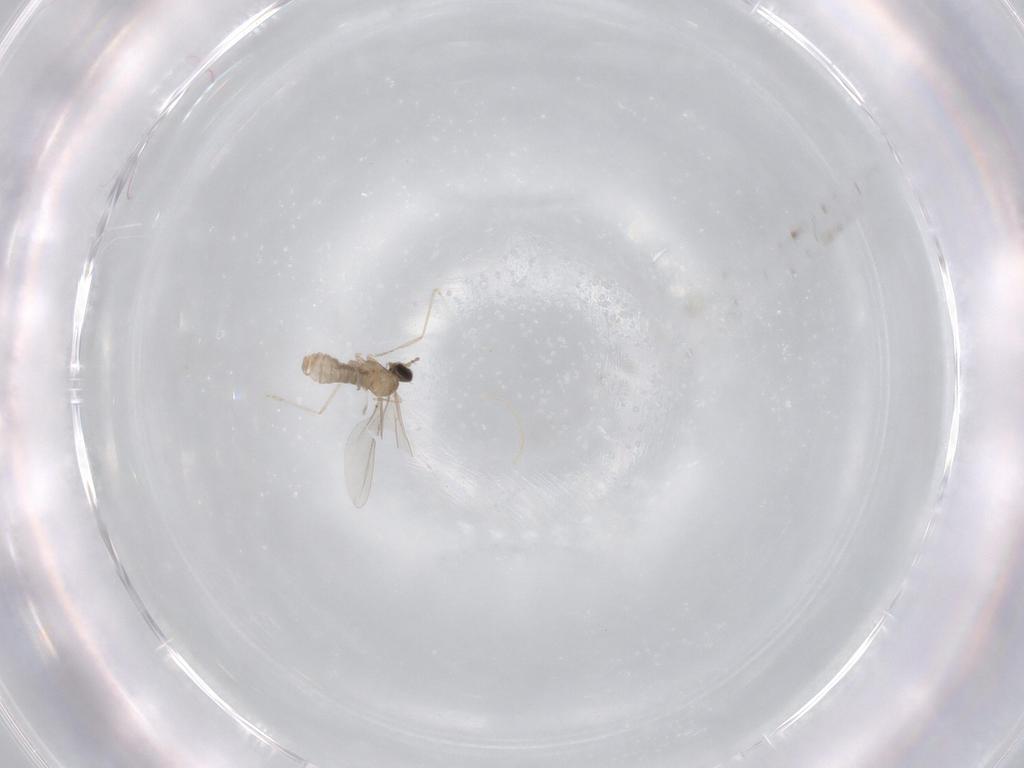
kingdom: Animalia
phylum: Arthropoda
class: Insecta
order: Diptera
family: Cecidomyiidae
